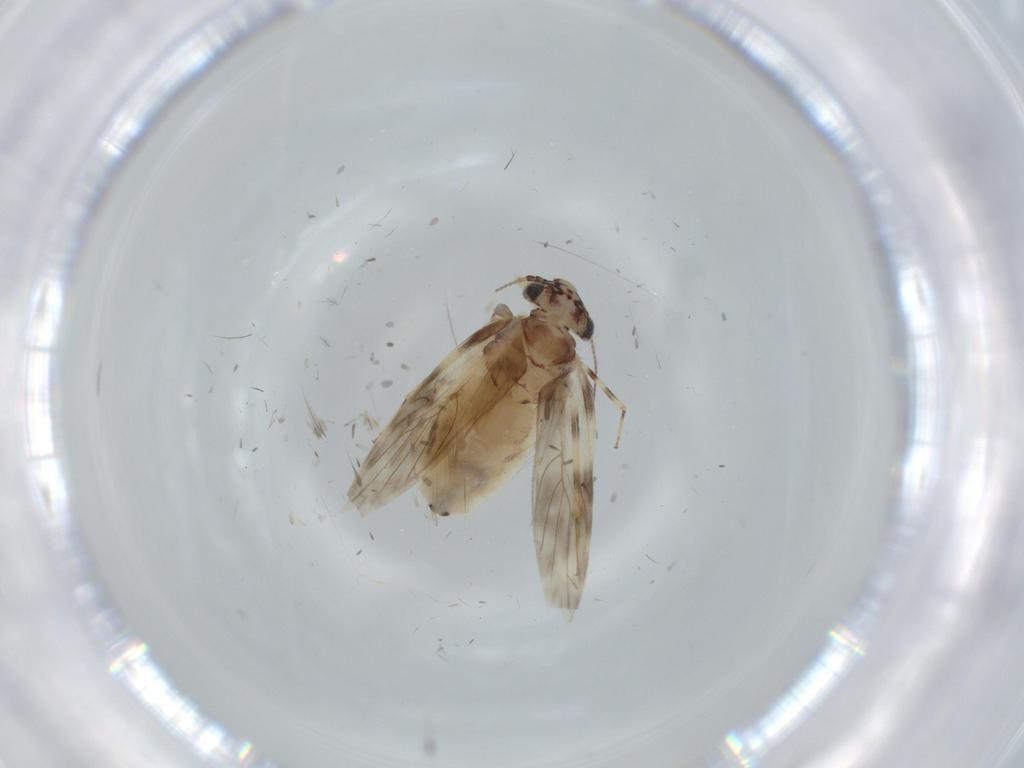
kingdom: Animalia
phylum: Arthropoda
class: Insecta
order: Psocodea
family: Lepidopsocidae
